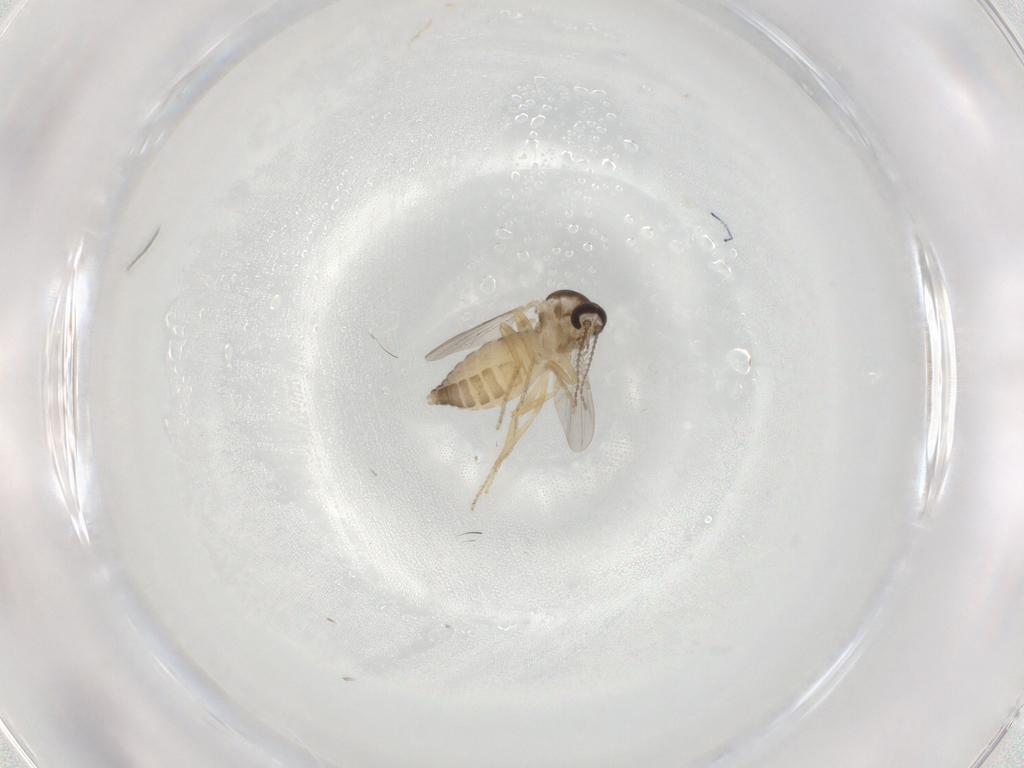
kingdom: Animalia
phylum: Arthropoda
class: Insecta
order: Diptera
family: Ceratopogonidae
